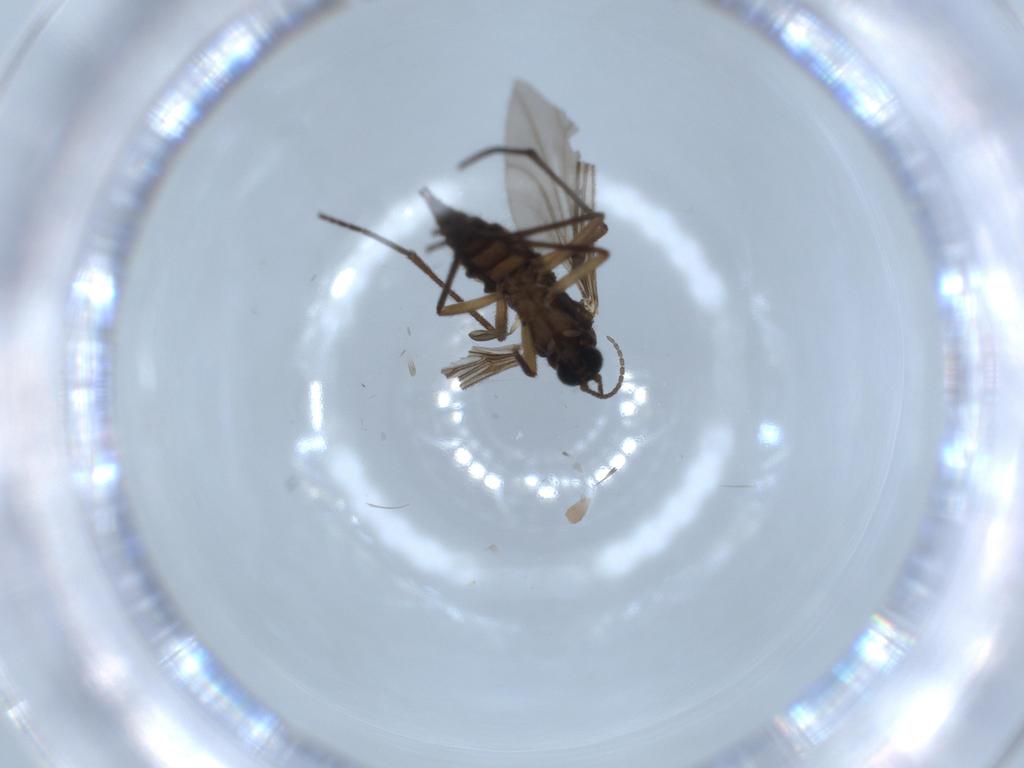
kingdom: Animalia
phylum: Arthropoda
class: Insecta
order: Diptera
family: Sciaridae
